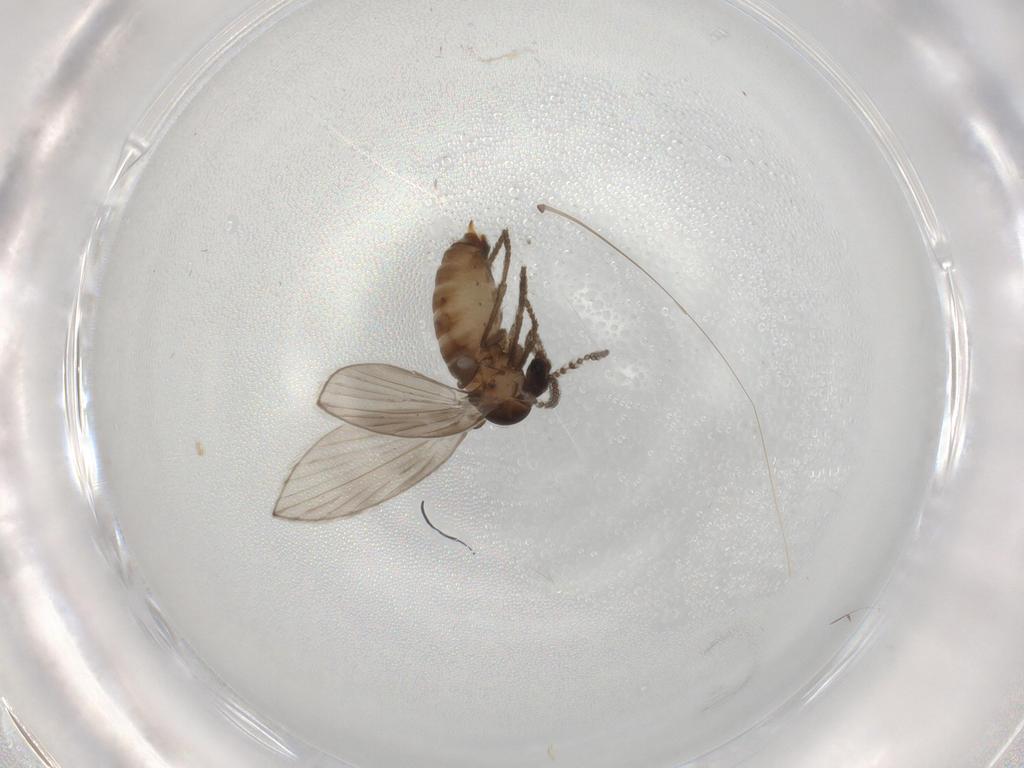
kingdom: Animalia
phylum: Arthropoda
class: Insecta
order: Diptera
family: Psychodidae
